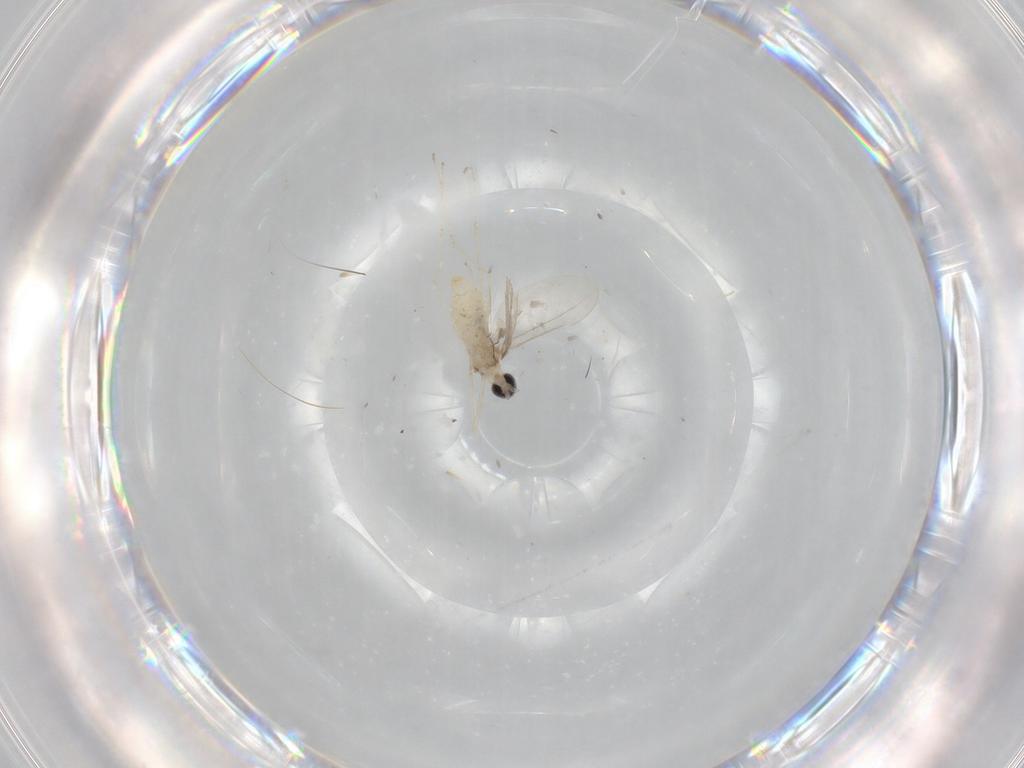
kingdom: Animalia
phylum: Arthropoda
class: Insecta
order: Diptera
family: Cecidomyiidae
